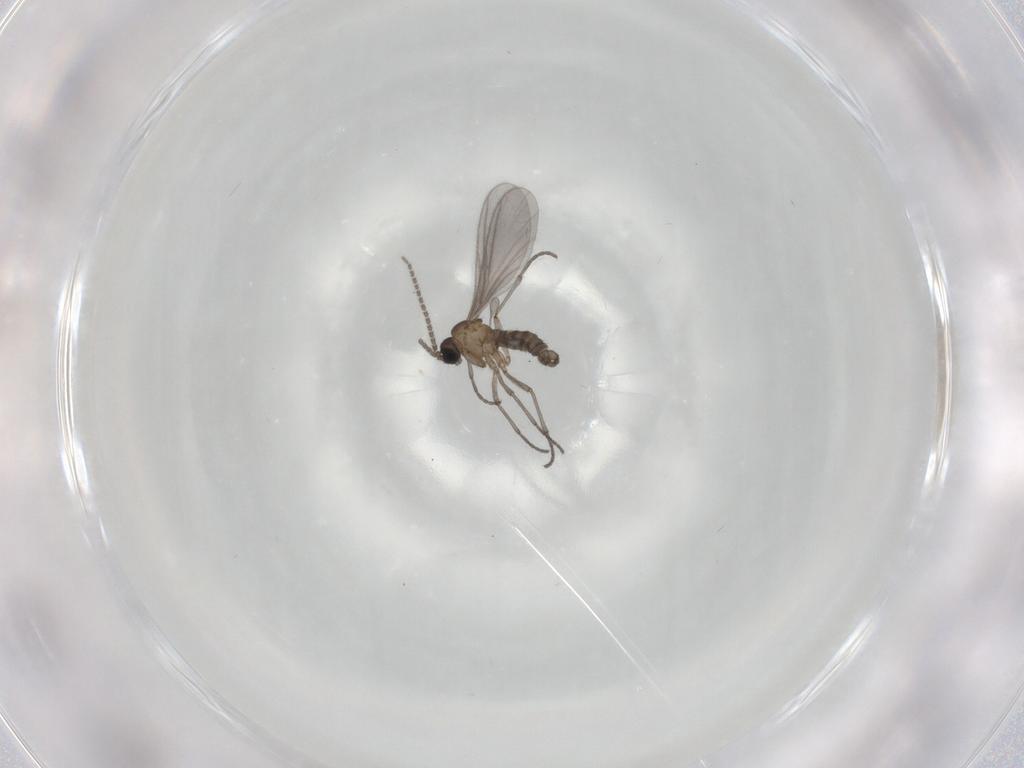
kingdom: Animalia
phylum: Arthropoda
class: Insecta
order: Diptera
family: Sciaridae
